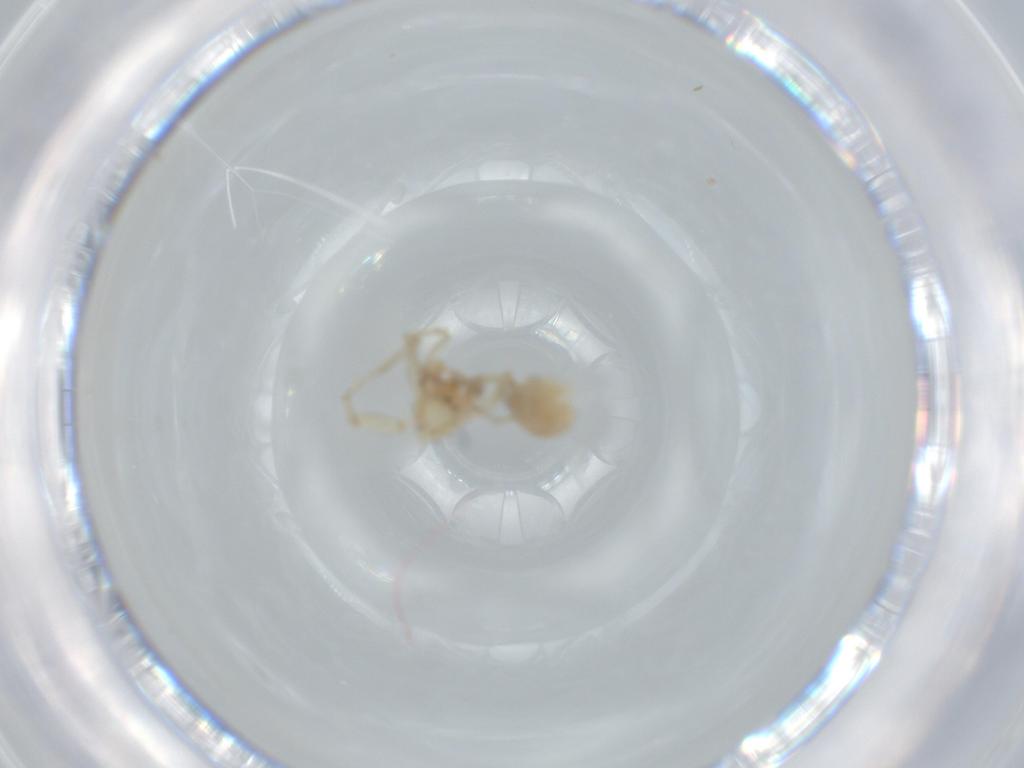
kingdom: Animalia
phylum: Arthropoda
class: Arachnida
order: Araneae
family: Oonopidae
